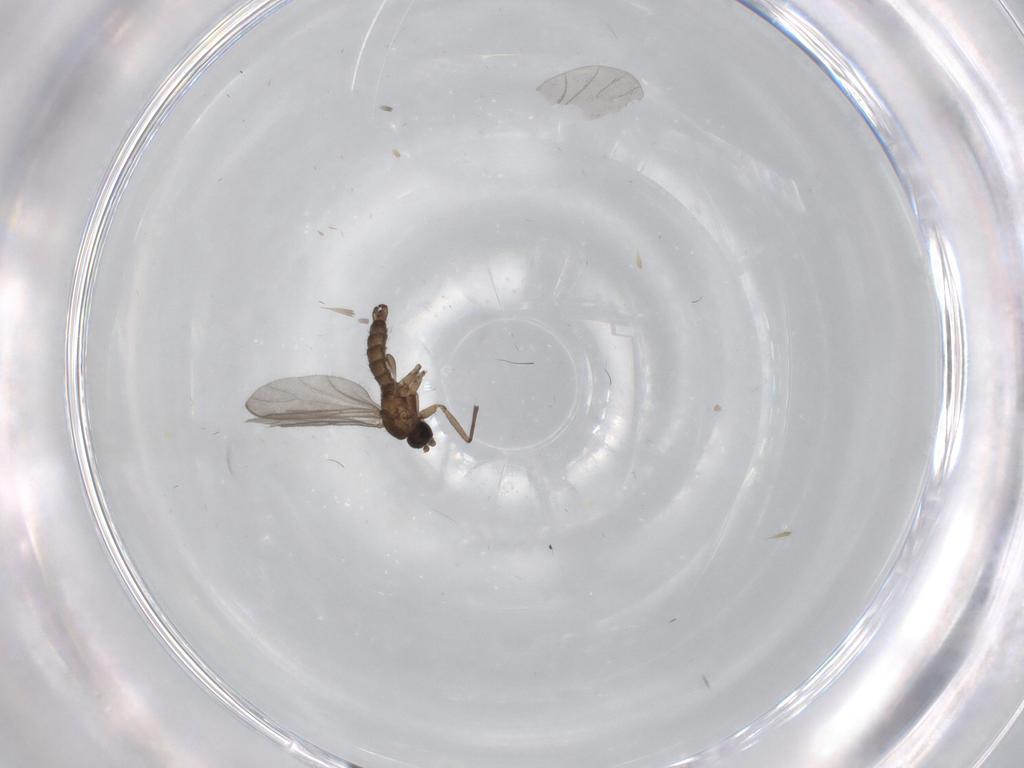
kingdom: Animalia
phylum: Arthropoda
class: Insecta
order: Diptera
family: Sciaridae
